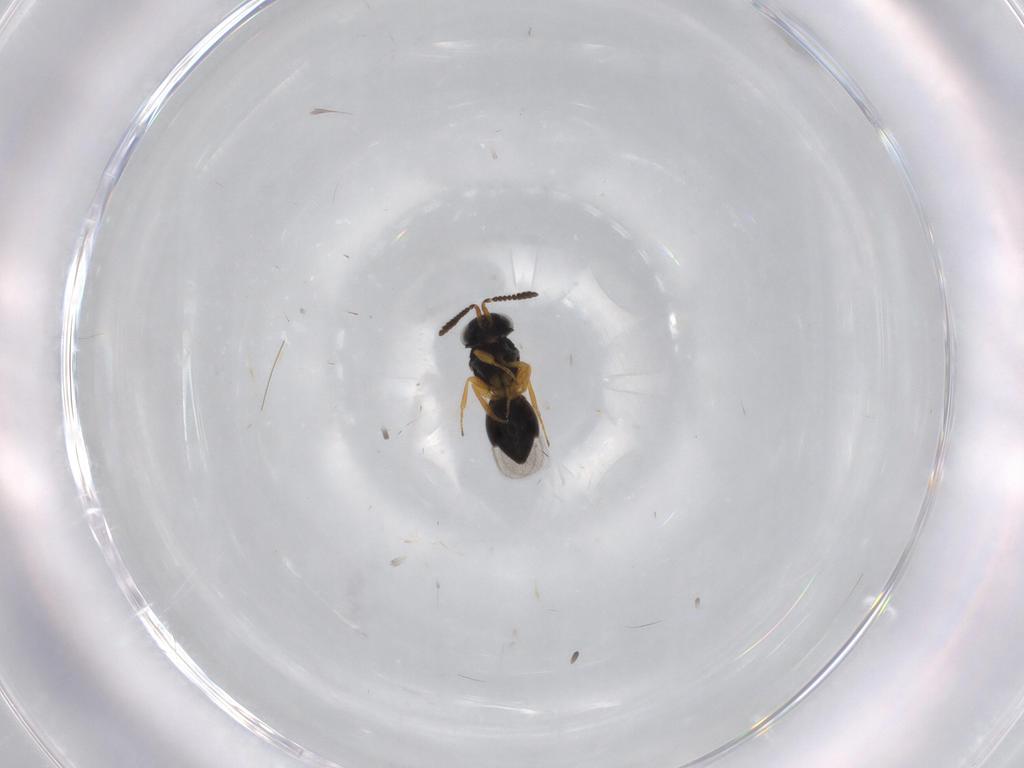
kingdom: Animalia
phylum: Arthropoda
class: Insecta
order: Hymenoptera
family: Scelionidae
